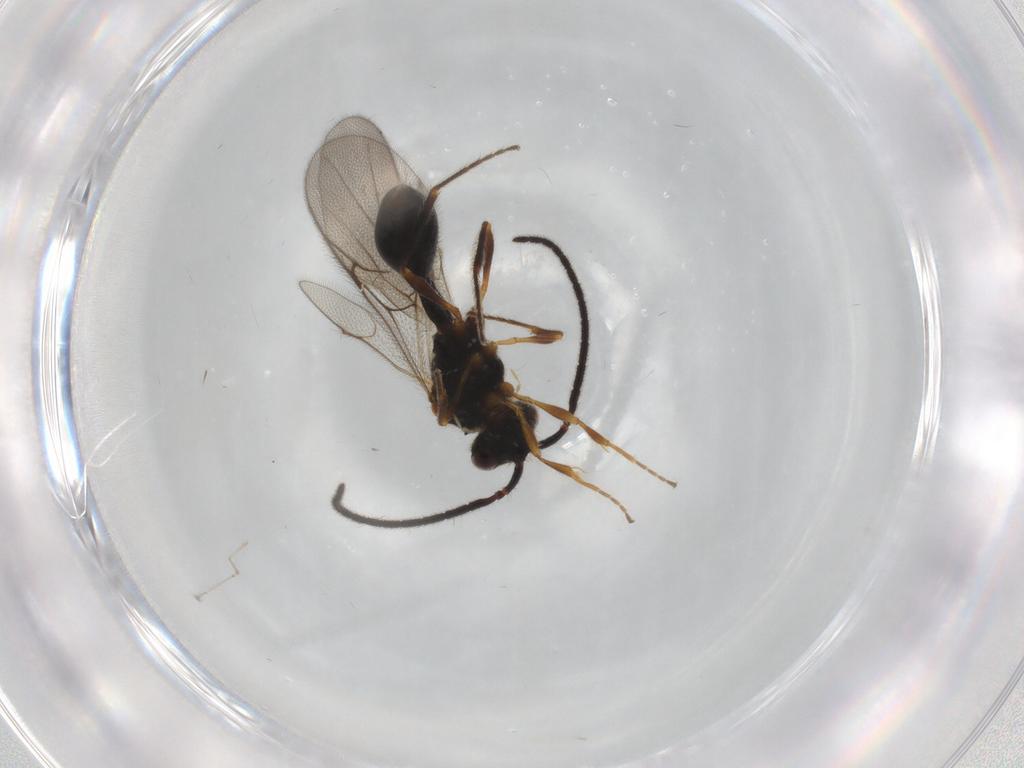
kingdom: Animalia
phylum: Arthropoda
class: Insecta
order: Hymenoptera
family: Diapriidae
